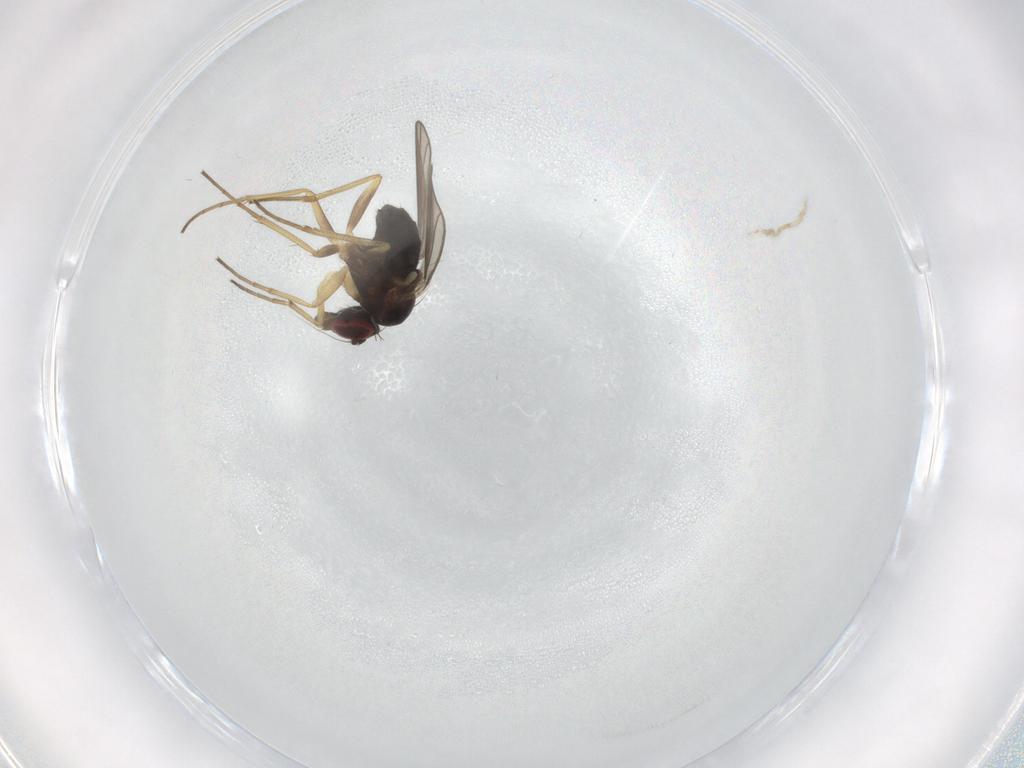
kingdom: Animalia
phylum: Arthropoda
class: Insecta
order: Diptera
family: Dolichopodidae
